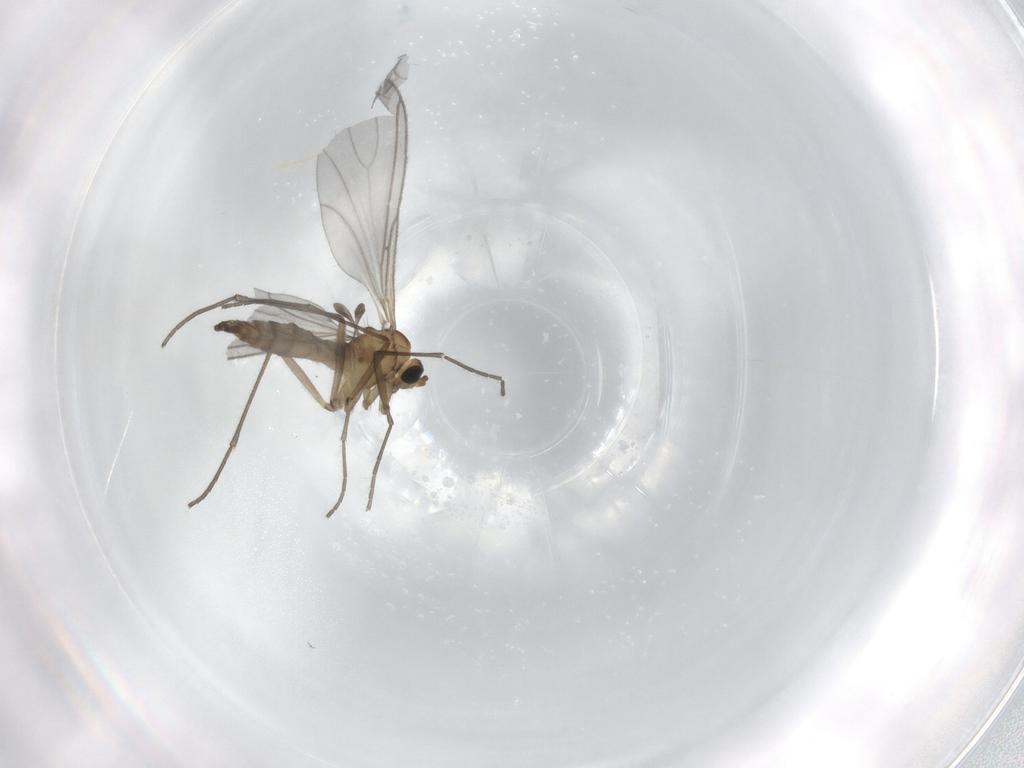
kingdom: Animalia
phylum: Arthropoda
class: Insecta
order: Diptera
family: Sciaridae
